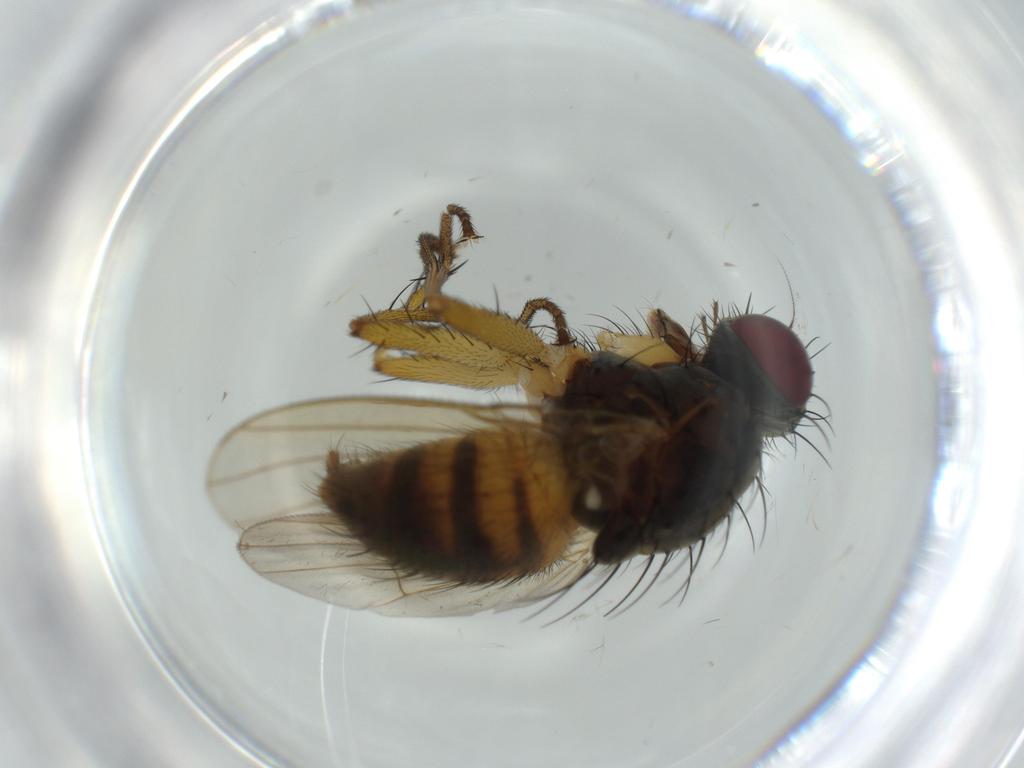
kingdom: Animalia
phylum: Arthropoda
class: Insecta
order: Diptera
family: Muscidae
